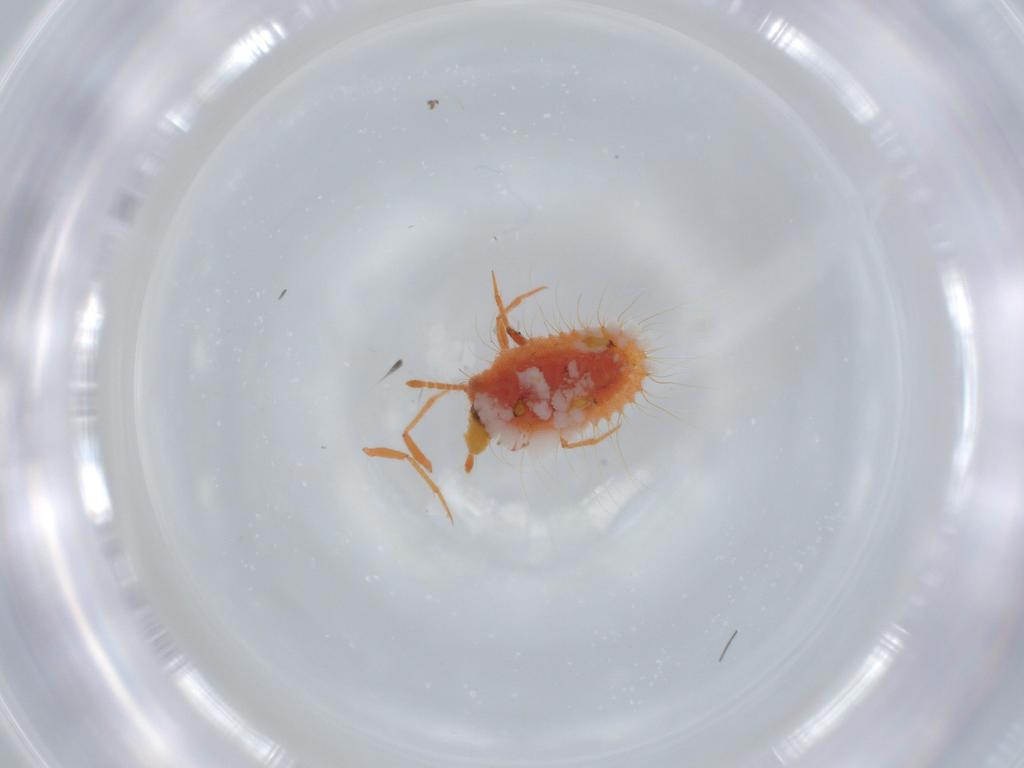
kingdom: Animalia
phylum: Arthropoda
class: Insecta
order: Hemiptera
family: Coccoidea_incertae_sedis
